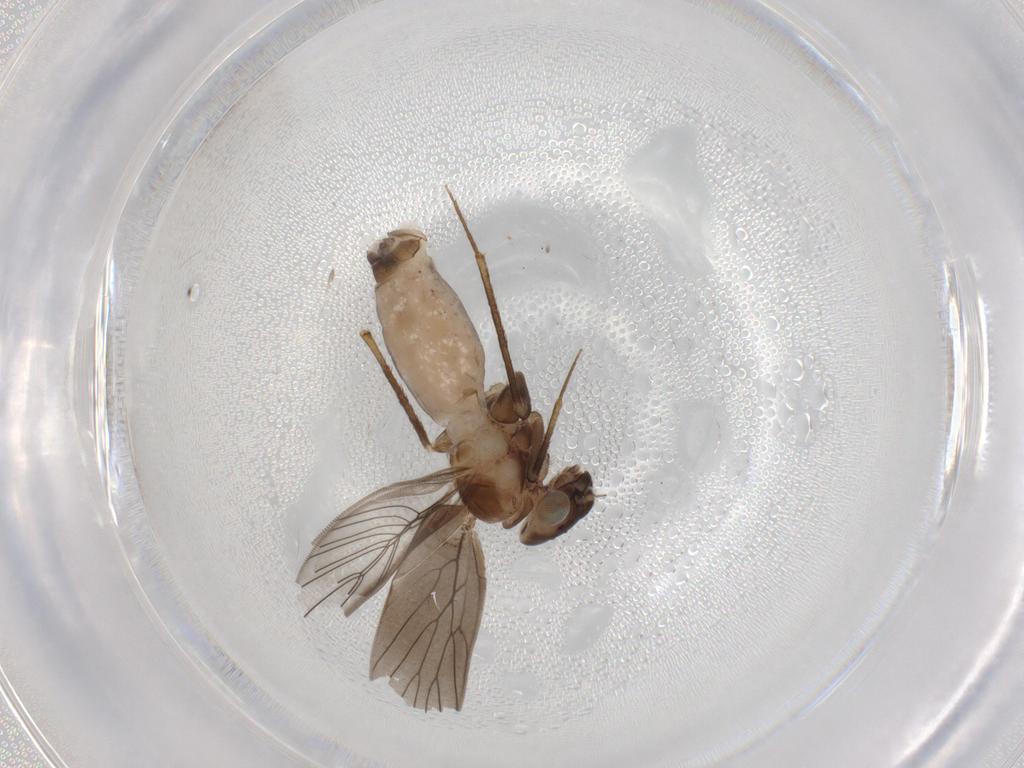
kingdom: Animalia
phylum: Arthropoda
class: Insecta
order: Psocodea
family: Lepidopsocidae
